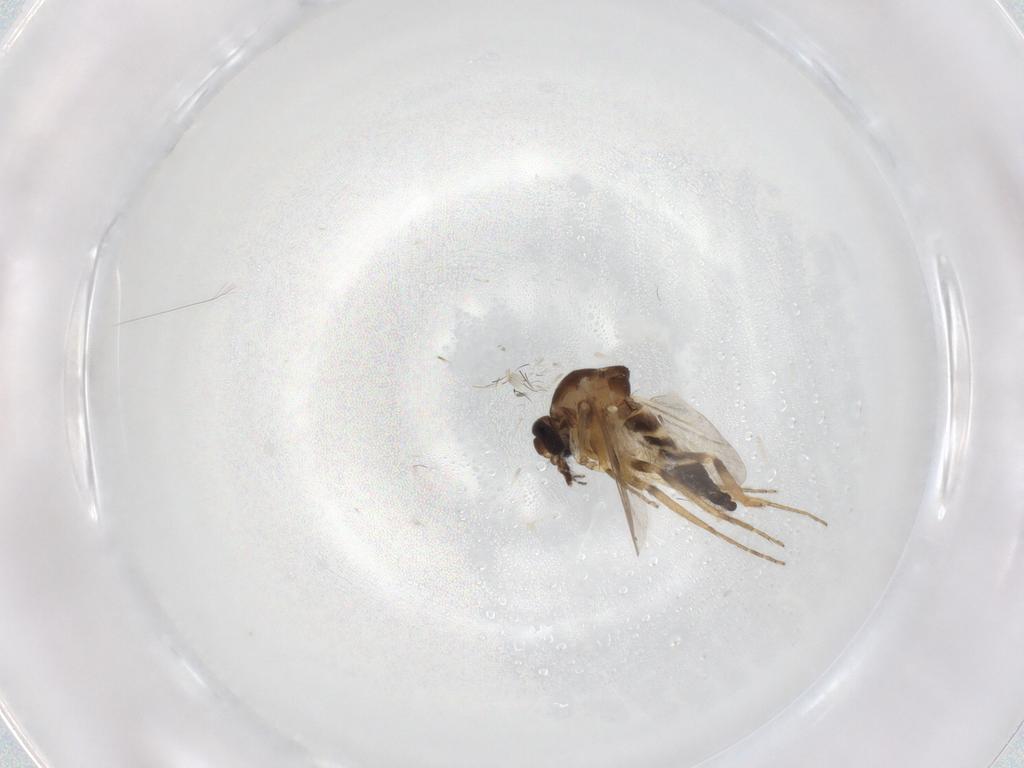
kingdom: Animalia
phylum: Arthropoda
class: Insecta
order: Diptera
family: Ceratopogonidae
